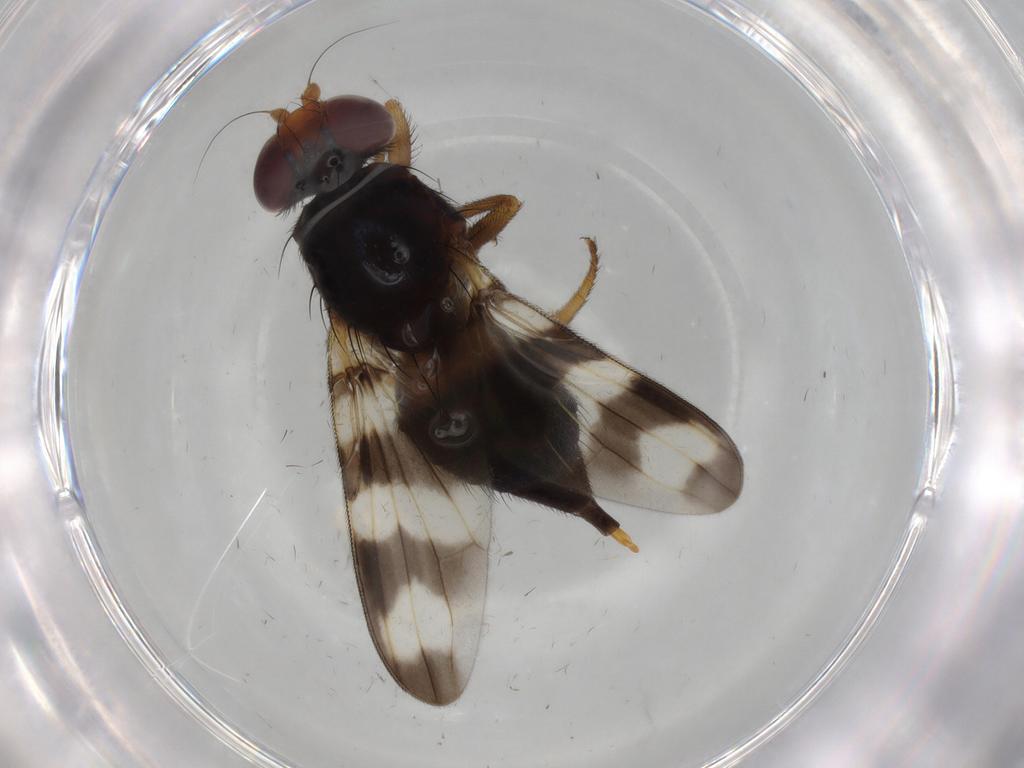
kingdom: Animalia
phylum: Arthropoda
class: Insecta
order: Diptera
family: Ulidiidae
